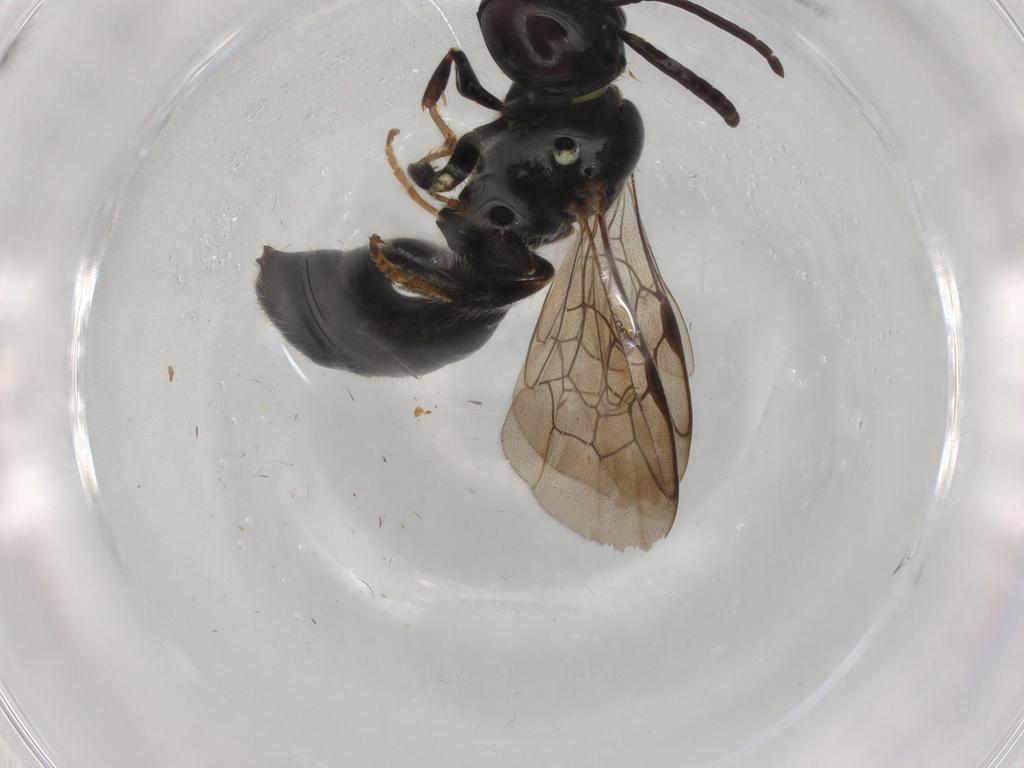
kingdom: Animalia
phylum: Arthropoda
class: Insecta
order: Hymenoptera
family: Apidae
